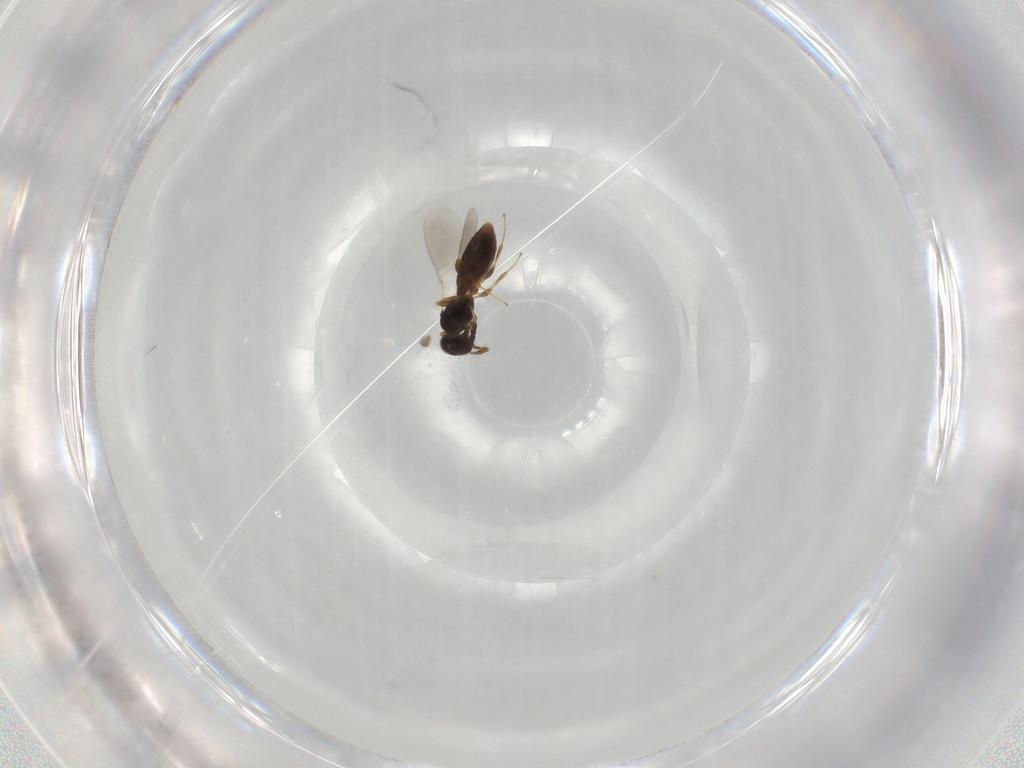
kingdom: Animalia
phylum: Arthropoda
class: Insecta
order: Hymenoptera
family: Platygastridae
